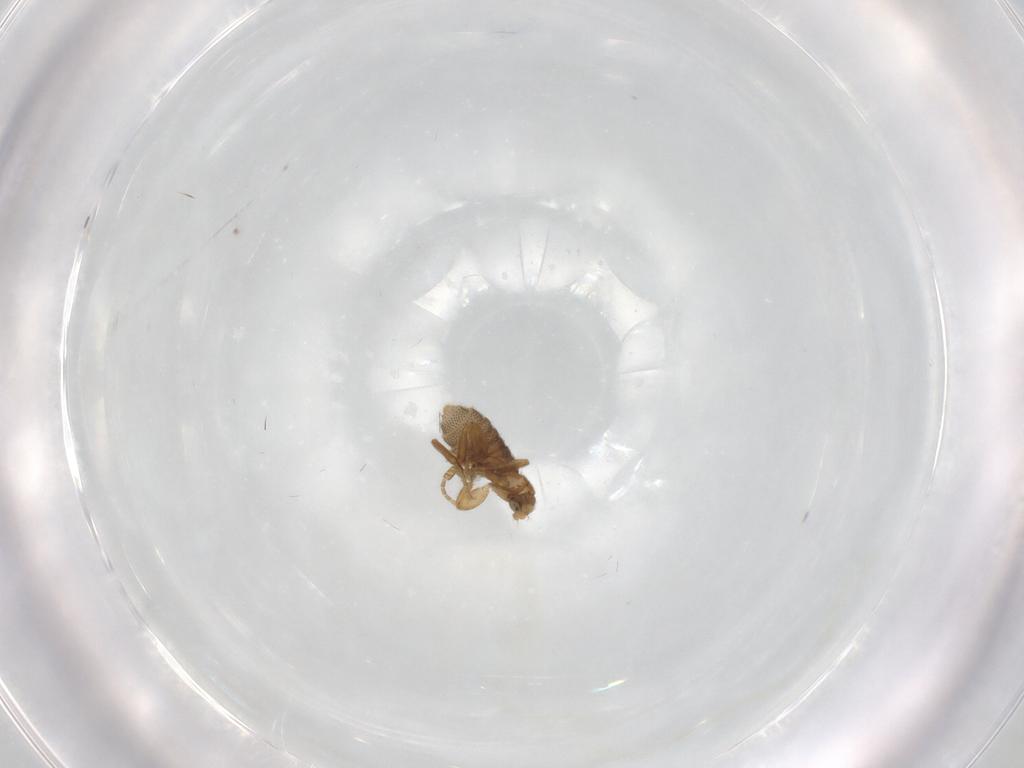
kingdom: Animalia
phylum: Arthropoda
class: Insecta
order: Diptera
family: Phoridae
